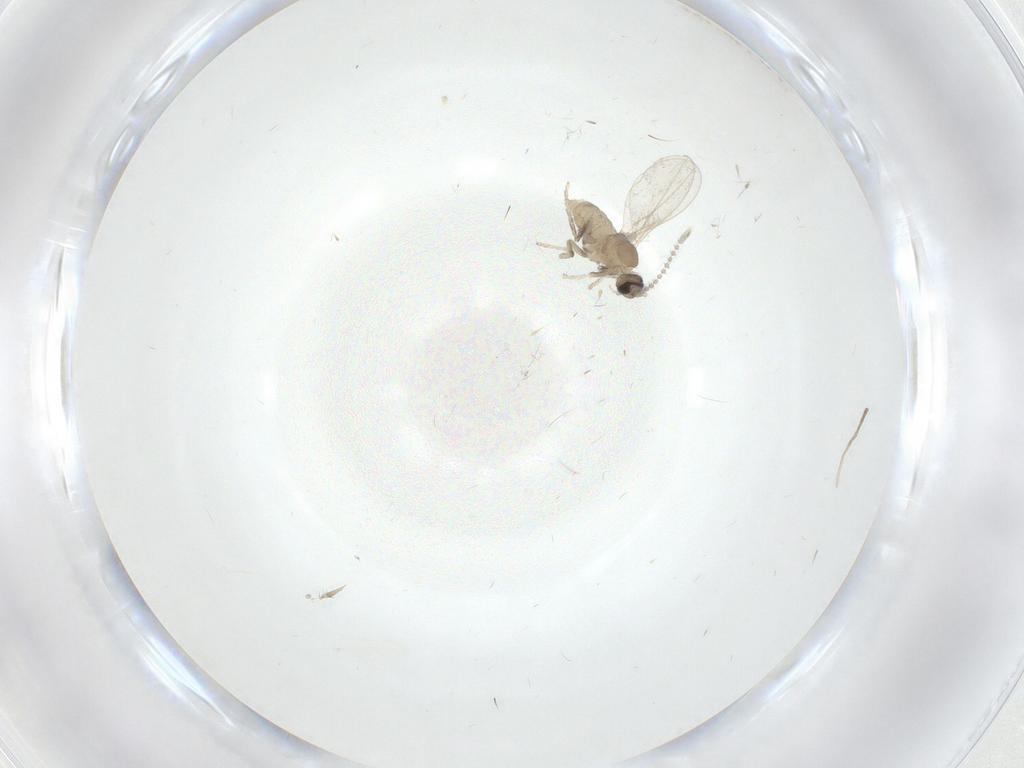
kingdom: Animalia
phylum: Arthropoda
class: Insecta
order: Diptera
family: Cecidomyiidae
